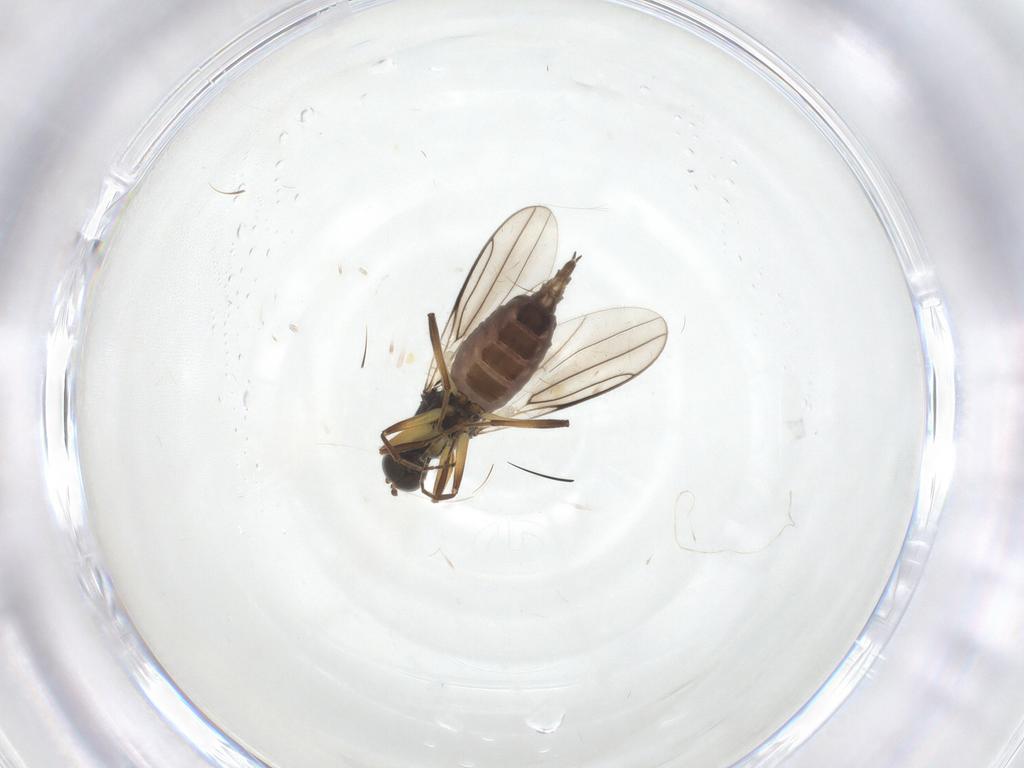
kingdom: Animalia
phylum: Arthropoda
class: Insecta
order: Diptera
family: Hybotidae
